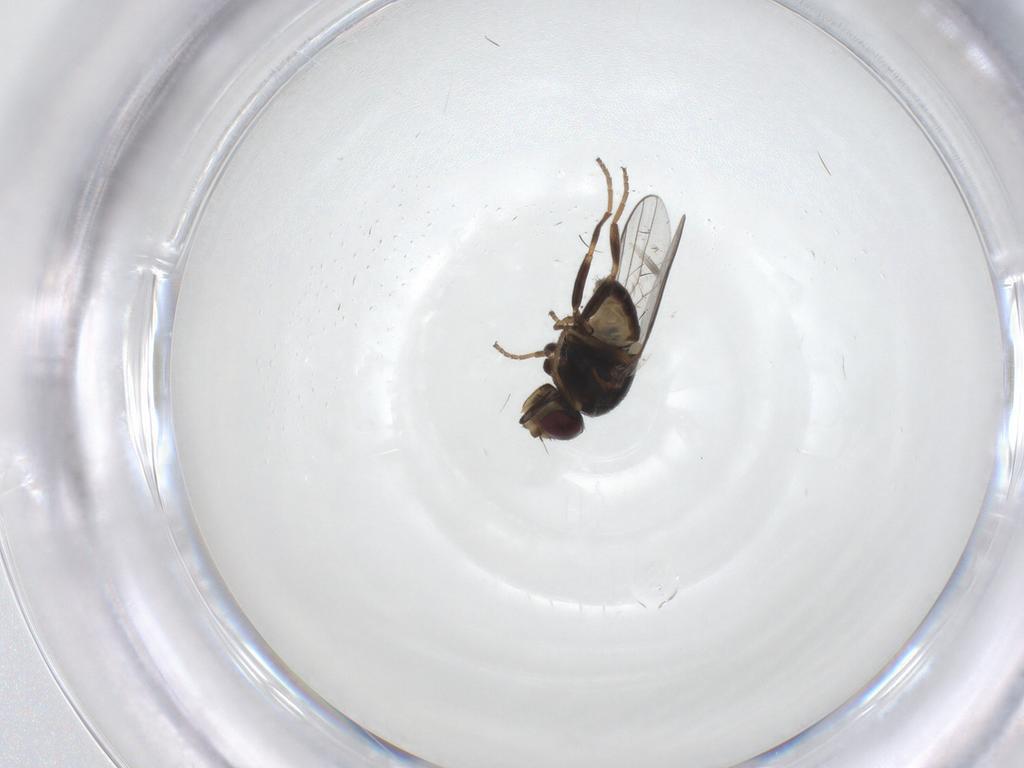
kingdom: Animalia
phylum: Arthropoda
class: Insecta
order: Diptera
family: Chloropidae
